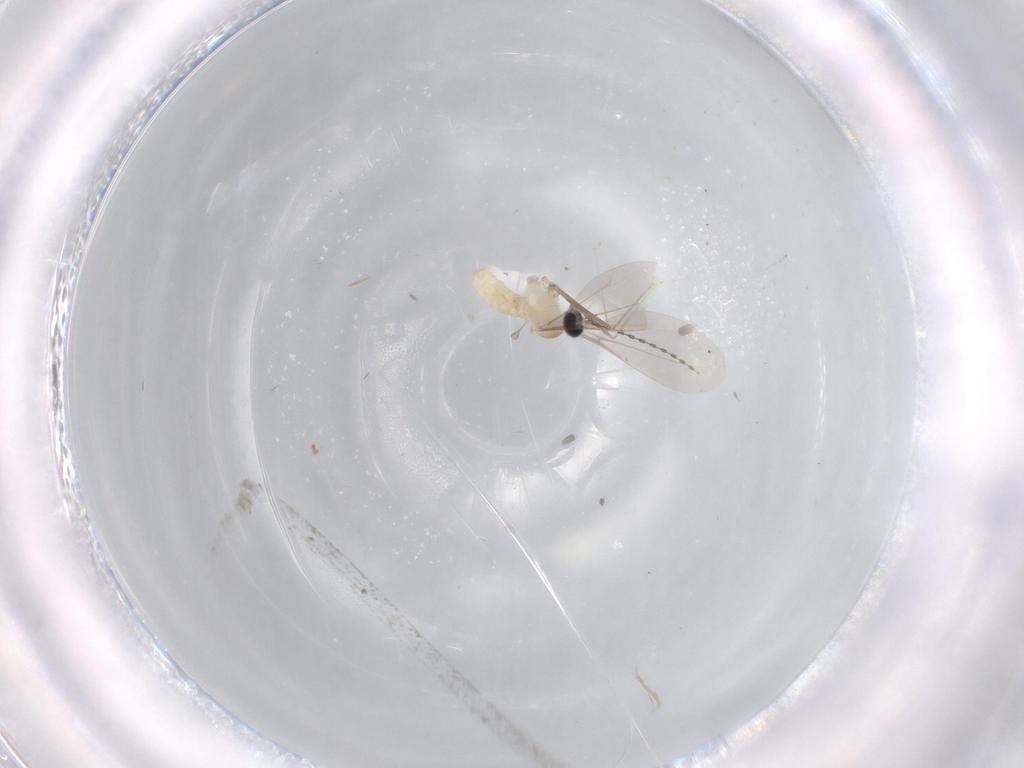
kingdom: Animalia
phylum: Arthropoda
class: Insecta
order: Diptera
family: Cecidomyiidae
